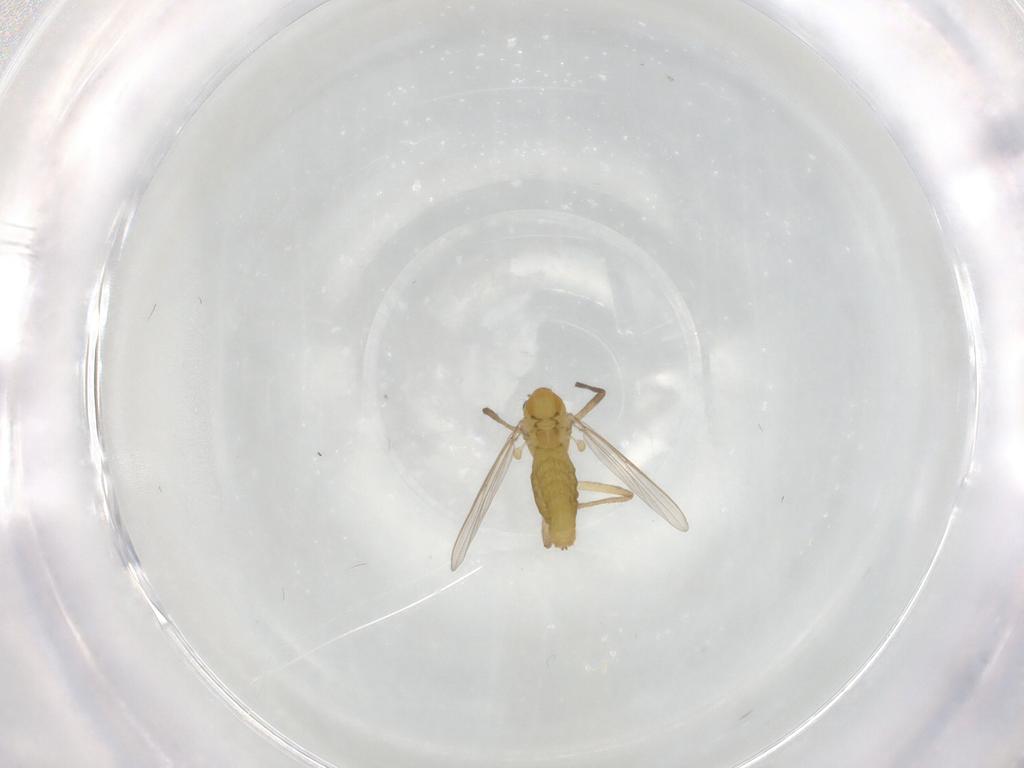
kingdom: Animalia
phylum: Arthropoda
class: Insecta
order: Diptera
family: Chironomidae
